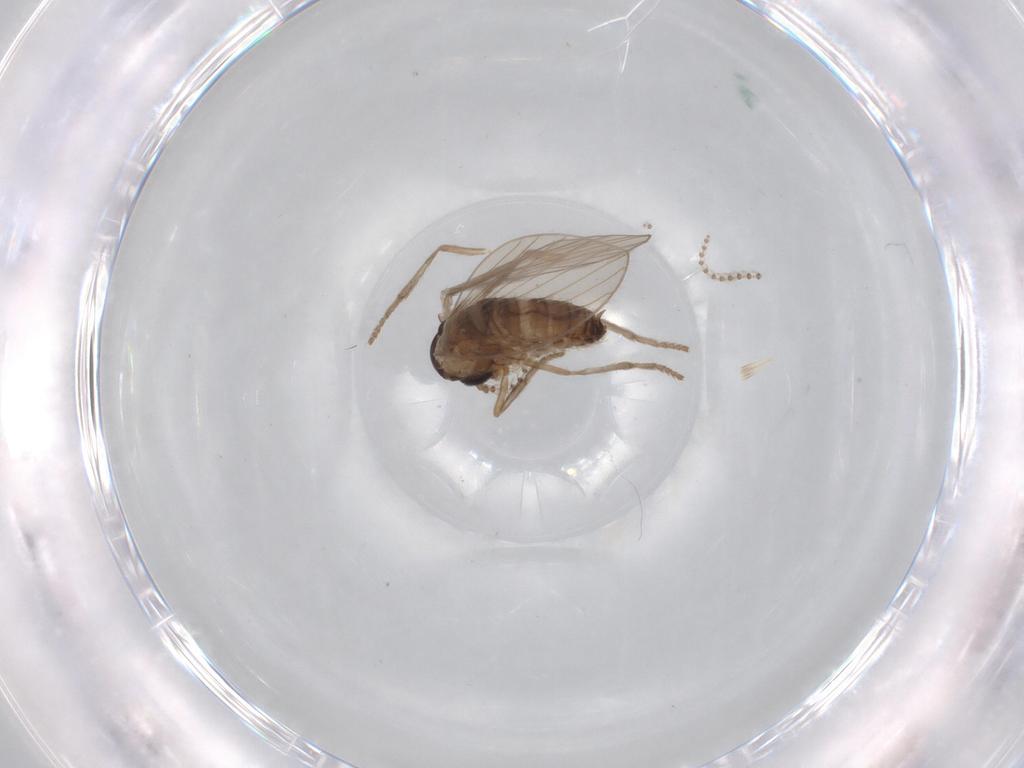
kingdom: Animalia
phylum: Arthropoda
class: Insecta
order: Diptera
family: Psychodidae
